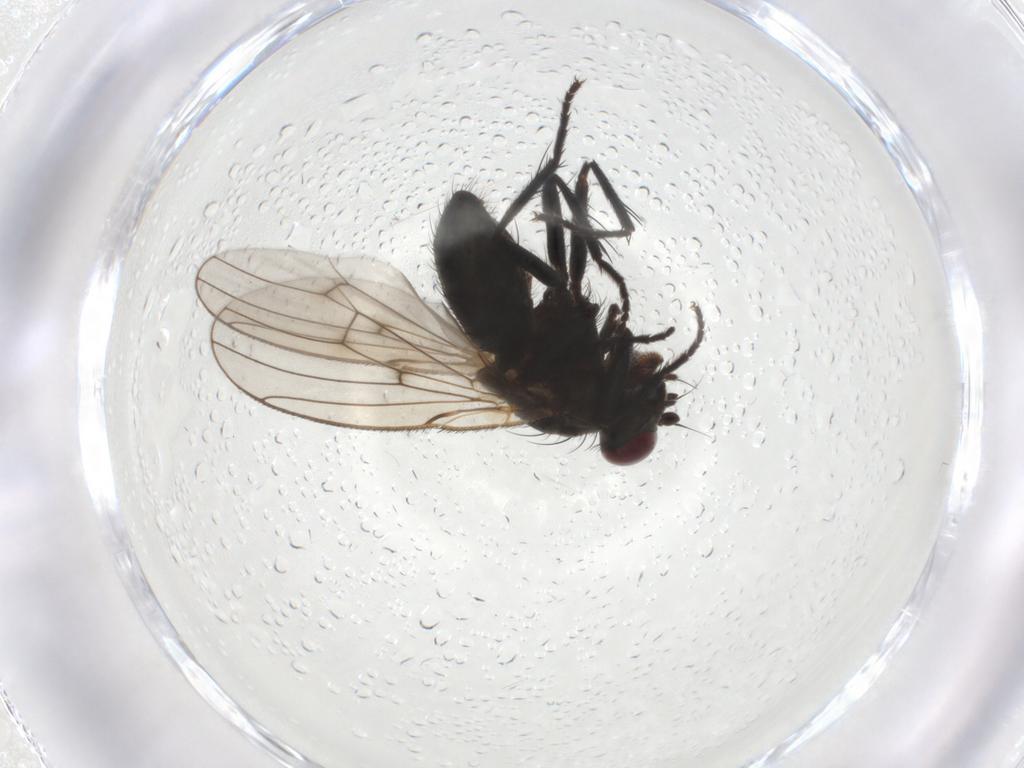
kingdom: Animalia
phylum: Arthropoda
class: Insecta
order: Diptera
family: Muscidae
